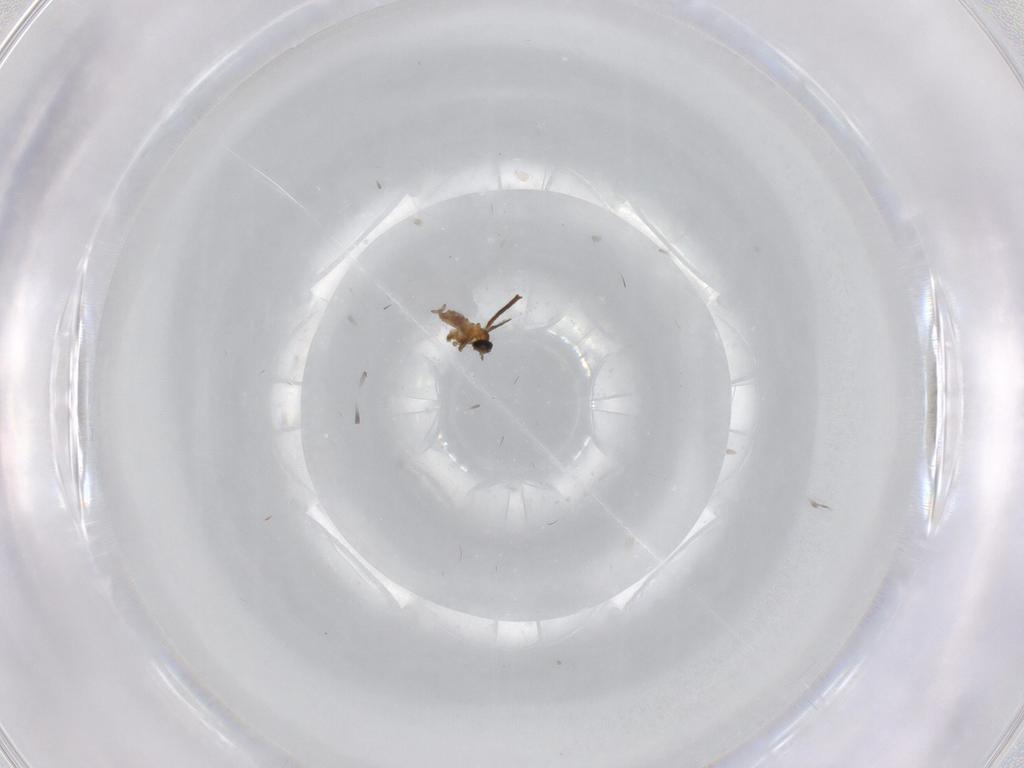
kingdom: Animalia
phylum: Arthropoda
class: Insecta
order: Diptera
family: Cecidomyiidae
